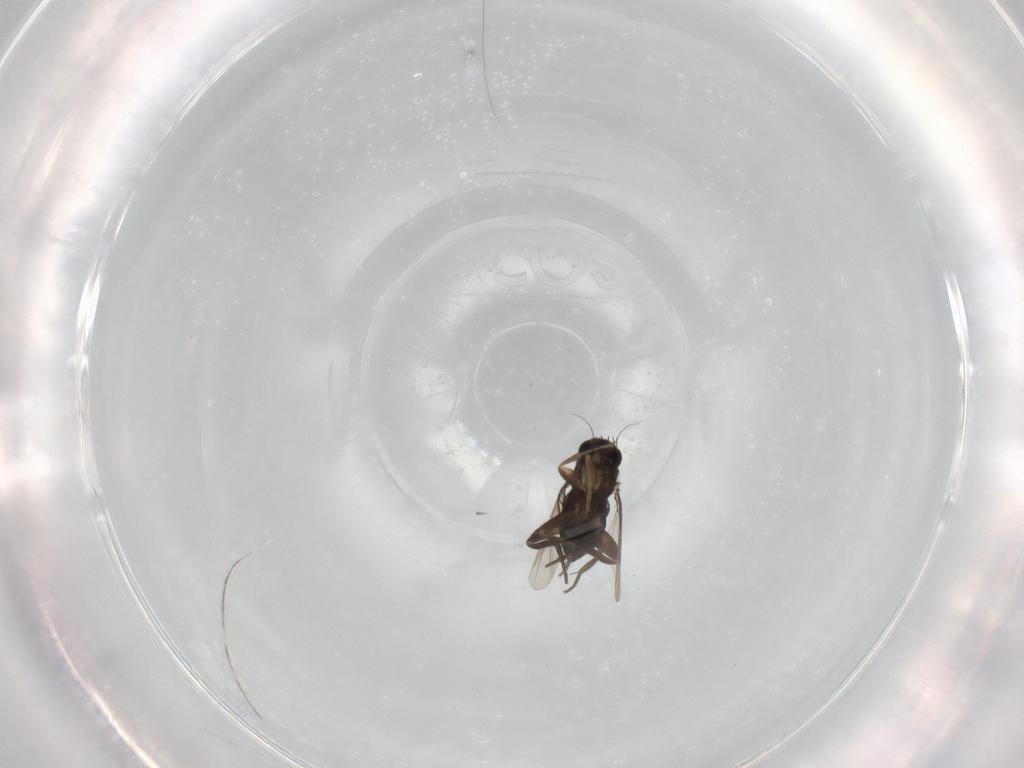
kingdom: Animalia
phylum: Arthropoda
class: Insecta
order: Diptera
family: Phoridae
